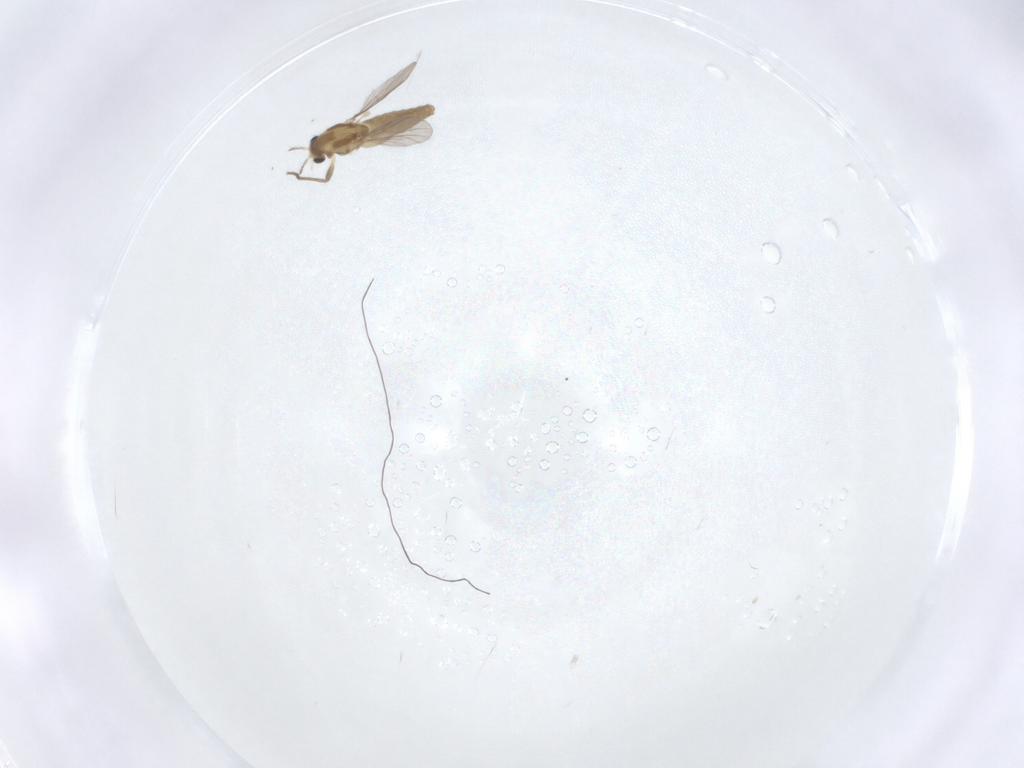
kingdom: Animalia
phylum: Arthropoda
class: Insecta
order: Diptera
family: Chironomidae
